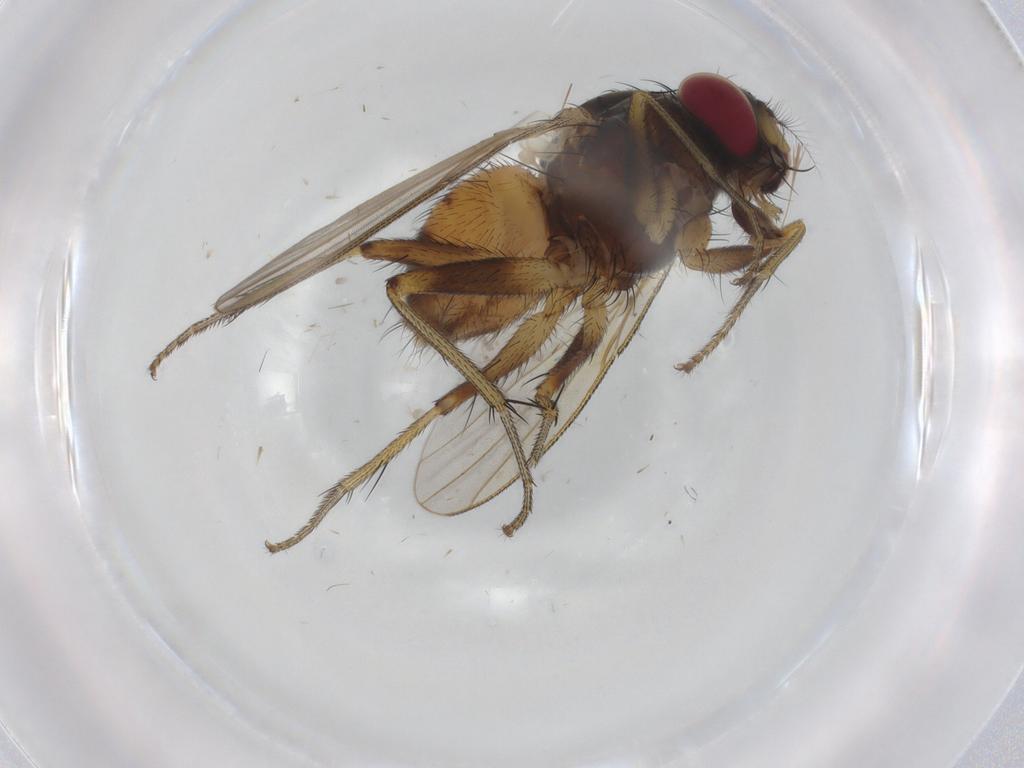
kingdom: Animalia
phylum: Arthropoda
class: Insecta
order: Diptera
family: Muscidae
